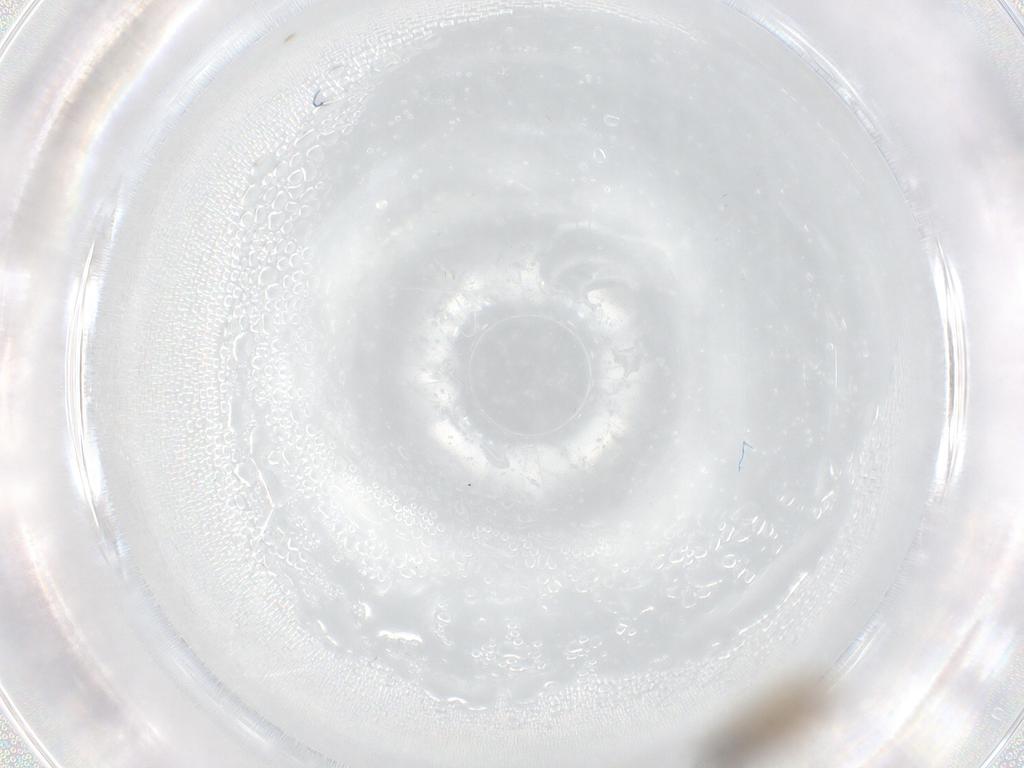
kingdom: Animalia
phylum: Arthropoda
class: Insecta
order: Diptera
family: Cecidomyiidae
